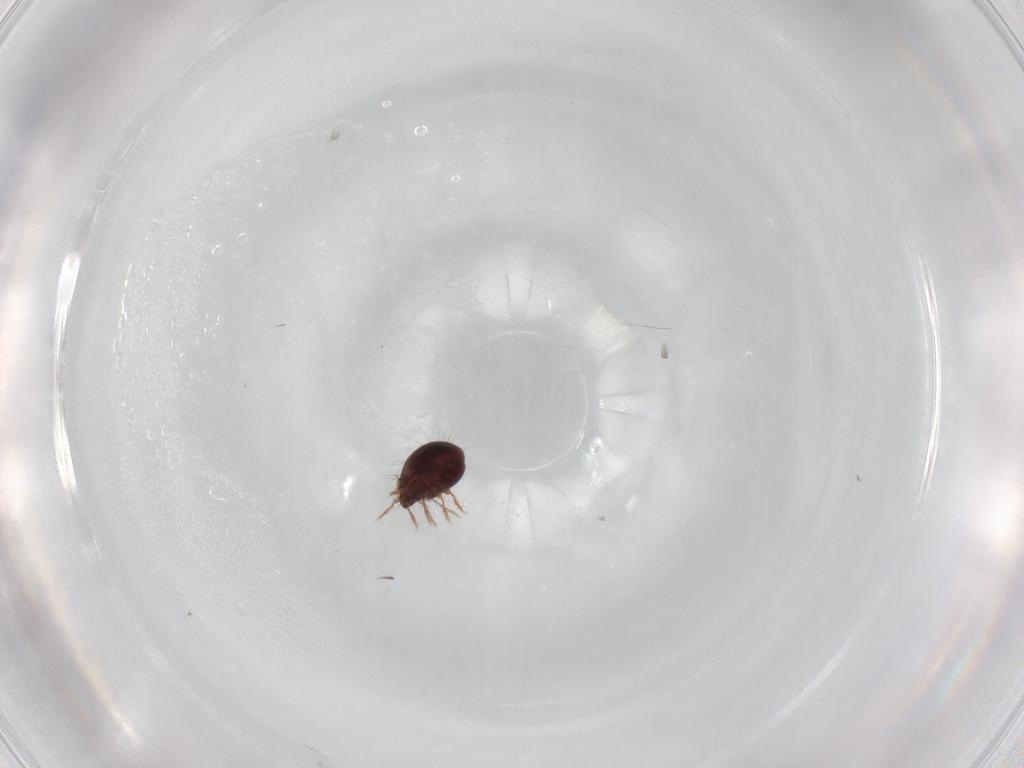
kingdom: Animalia
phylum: Arthropoda
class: Arachnida
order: Sarcoptiformes
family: Humerobatidae
